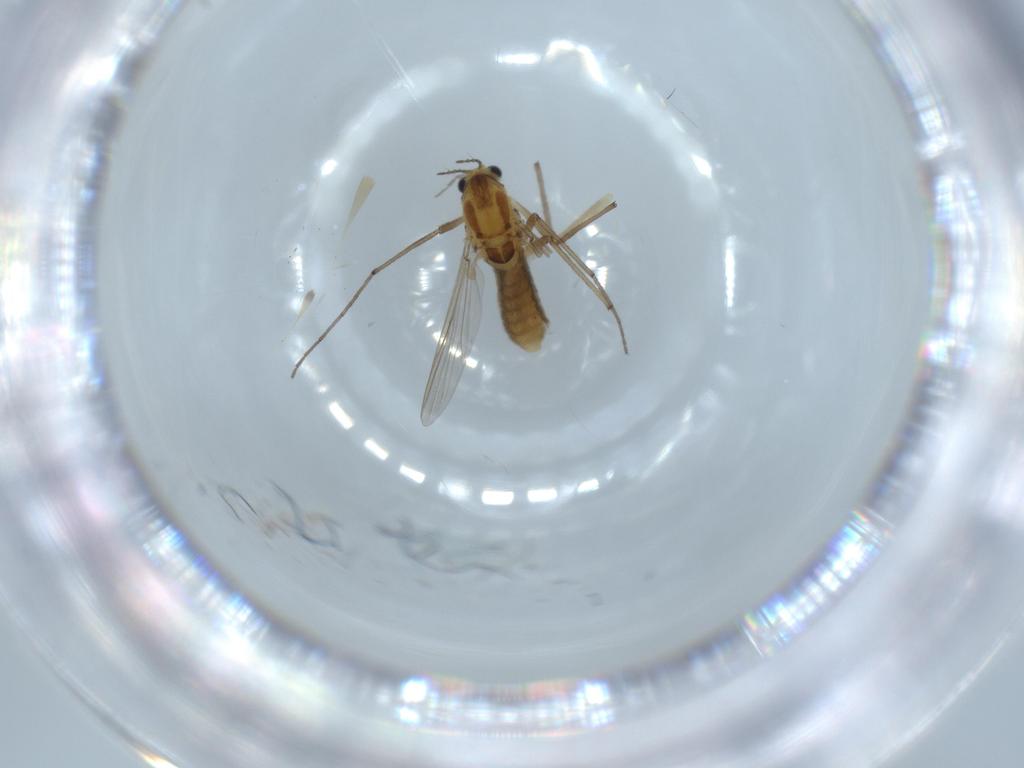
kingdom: Animalia
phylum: Arthropoda
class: Insecta
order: Diptera
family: Chironomidae
